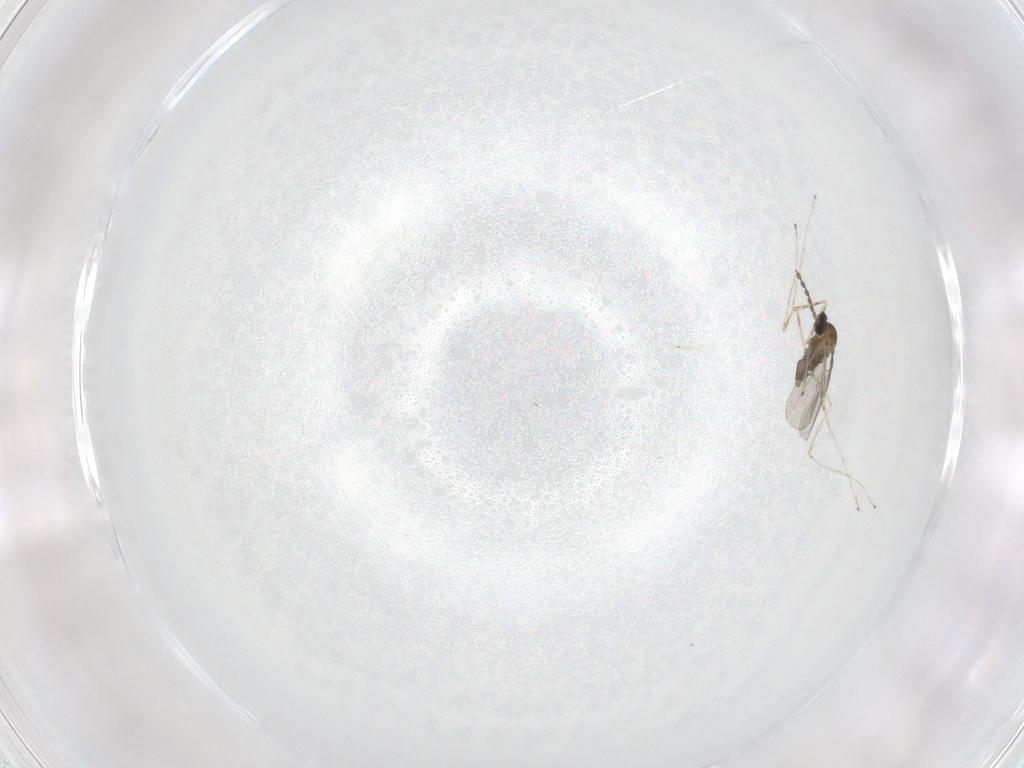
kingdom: Animalia
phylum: Arthropoda
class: Insecta
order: Diptera
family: Cecidomyiidae
